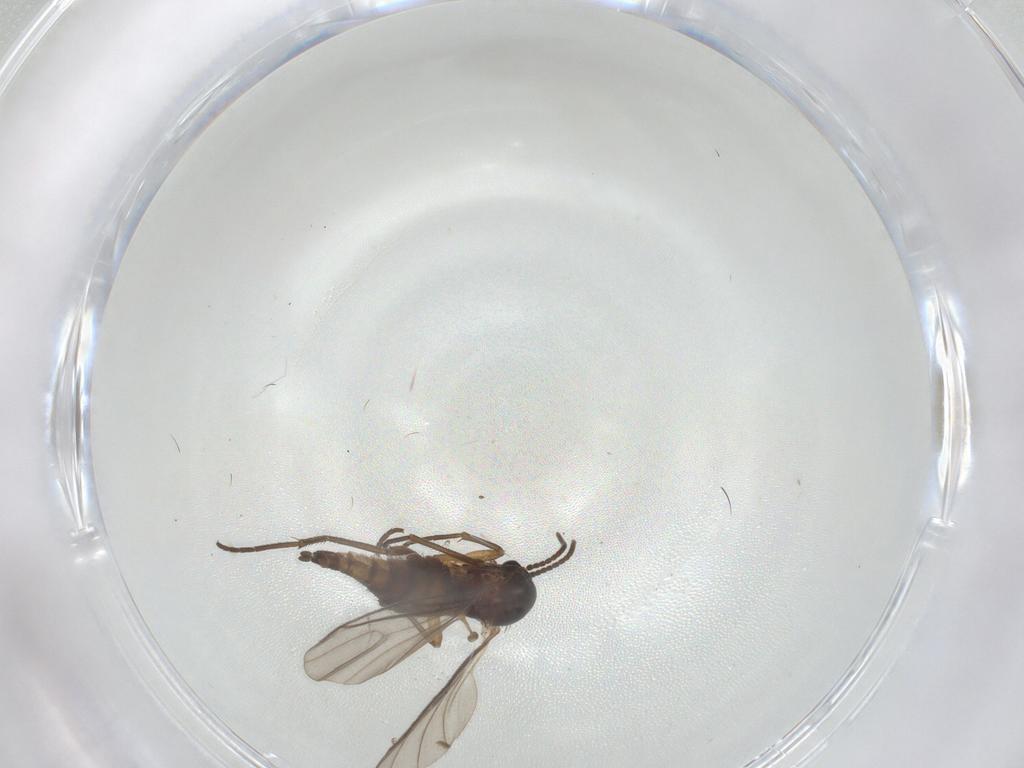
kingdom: Animalia
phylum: Arthropoda
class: Insecta
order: Diptera
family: Sciaridae
